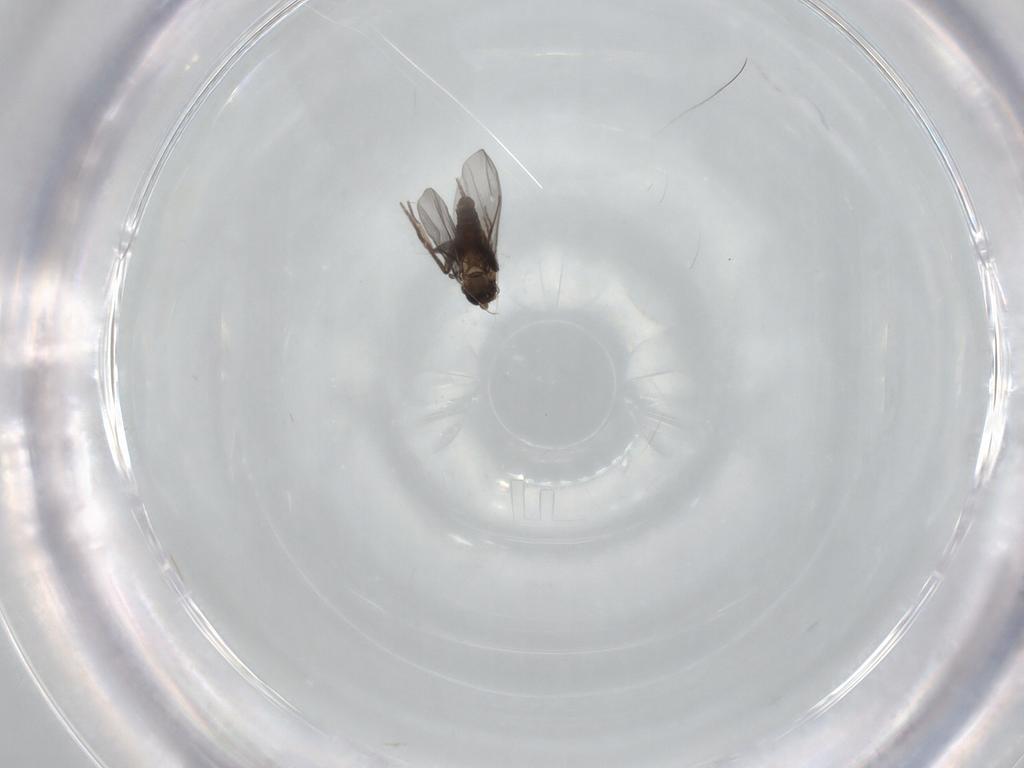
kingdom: Animalia
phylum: Arthropoda
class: Insecta
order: Diptera
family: Phoridae
